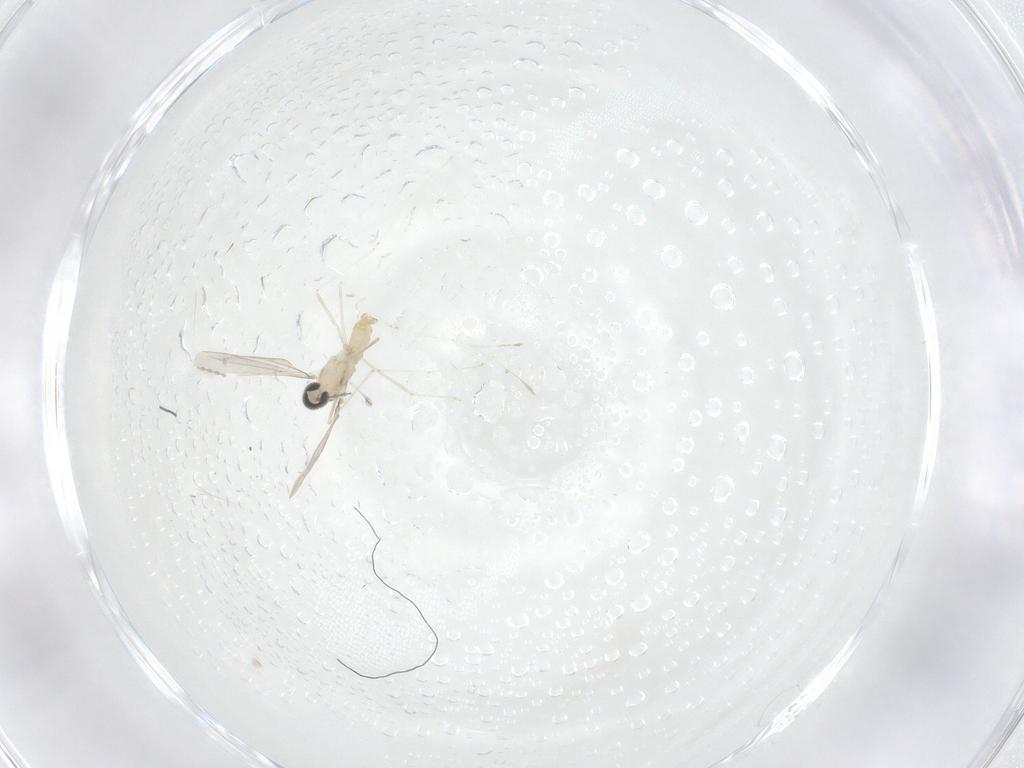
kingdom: Animalia
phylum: Arthropoda
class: Insecta
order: Diptera
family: Cecidomyiidae
